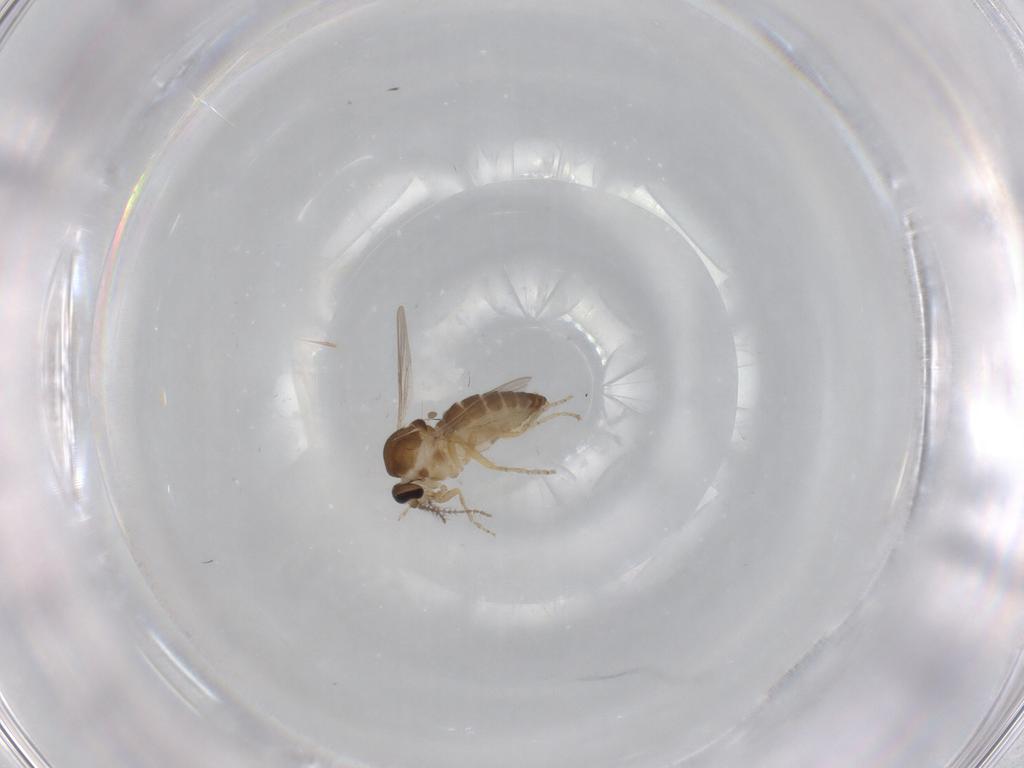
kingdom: Animalia
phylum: Arthropoda
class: Insecta
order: Diptera
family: Ceratopogonidae
